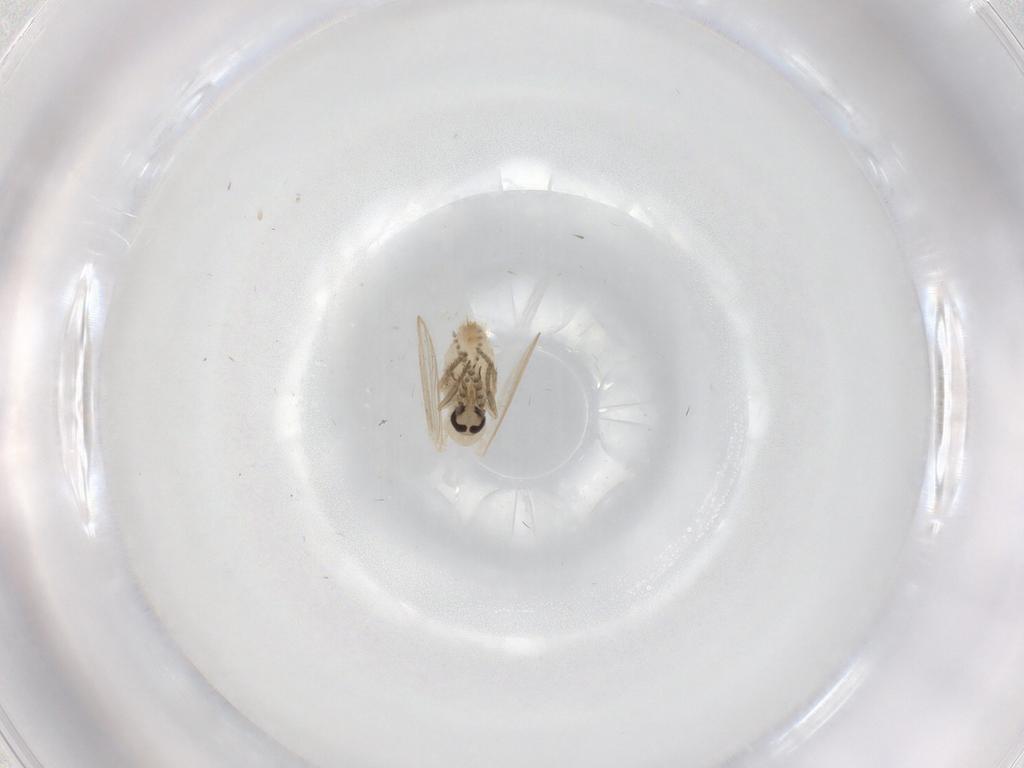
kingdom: Animalia
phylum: Arthropoda
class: Insecta
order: Diptera
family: Psychodidae
